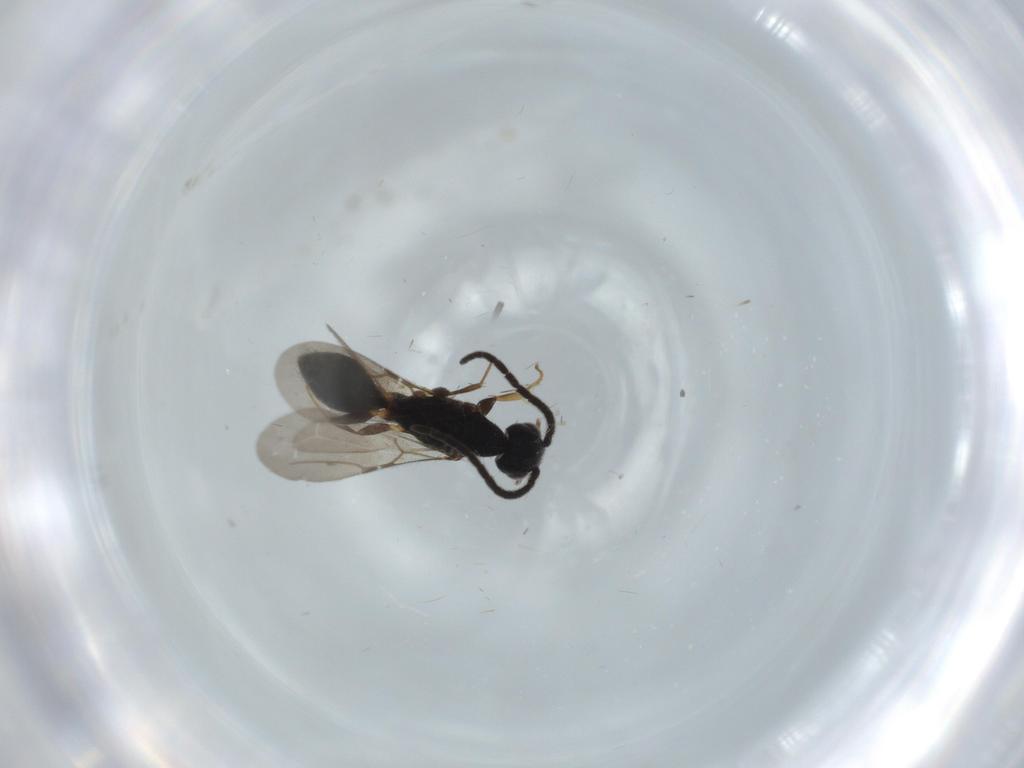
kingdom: Animalia
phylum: Arthropoda
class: Insecta
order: Hymenoptera
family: Bethylidae
